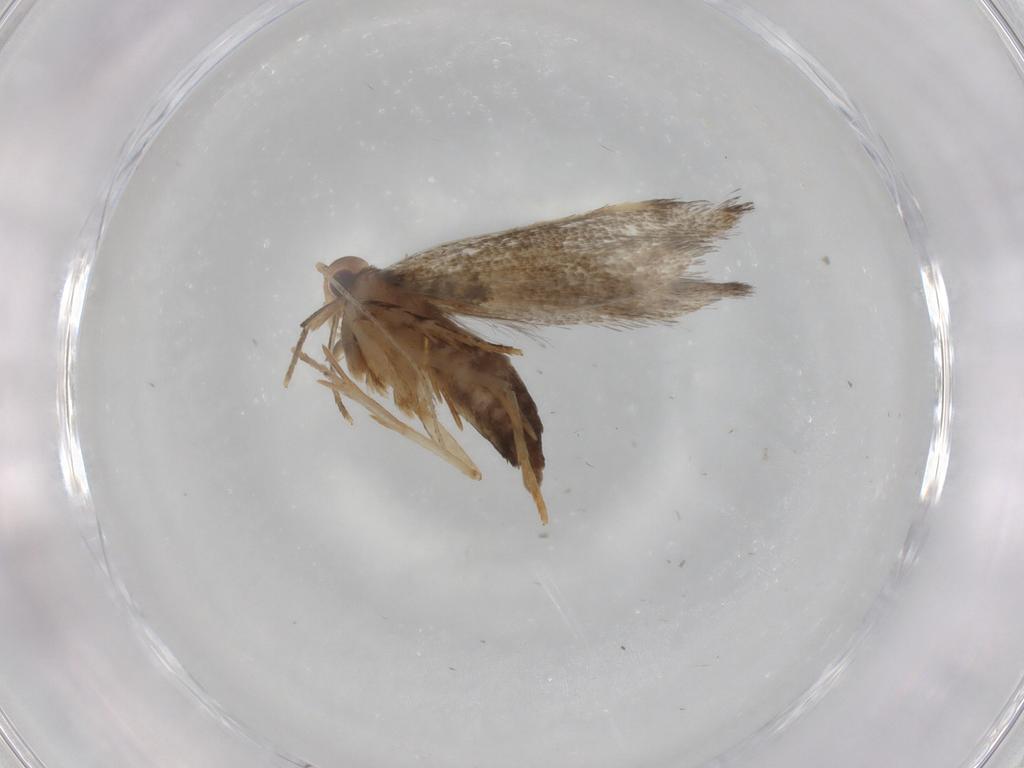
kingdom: Animalia
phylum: Arthropoda
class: Insecta
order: Lepidoptera
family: Cosmopterigidae
